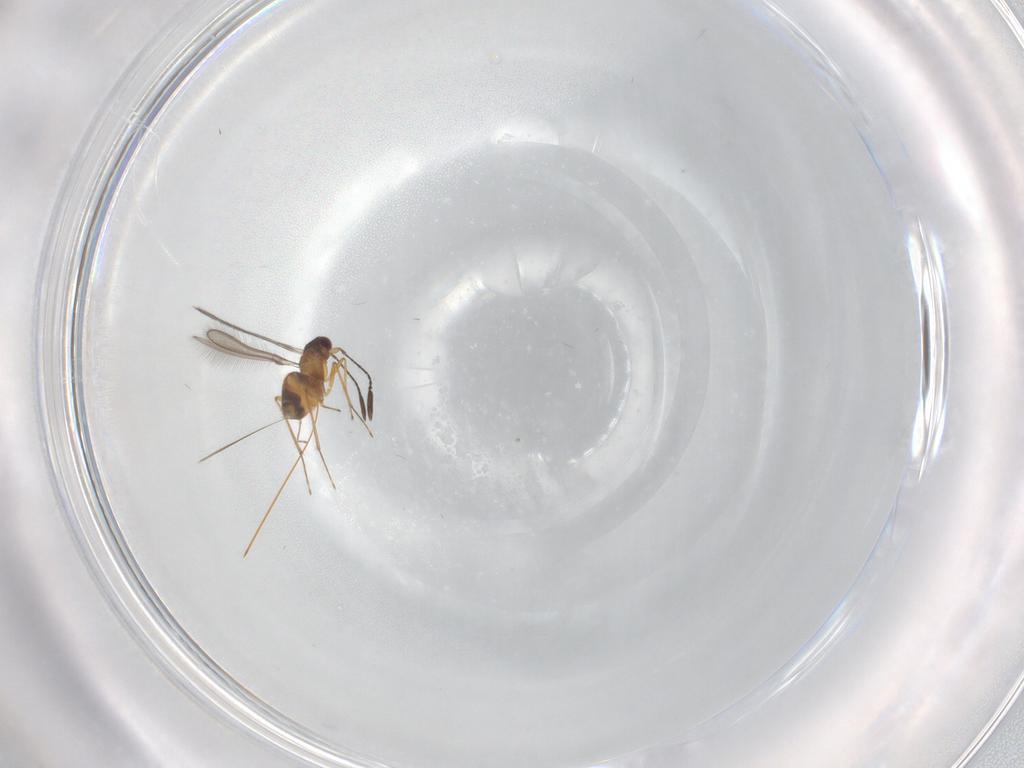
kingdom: Animalia
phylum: Arthropoda
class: Insecta
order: Hymenoptera
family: Mymaridae
